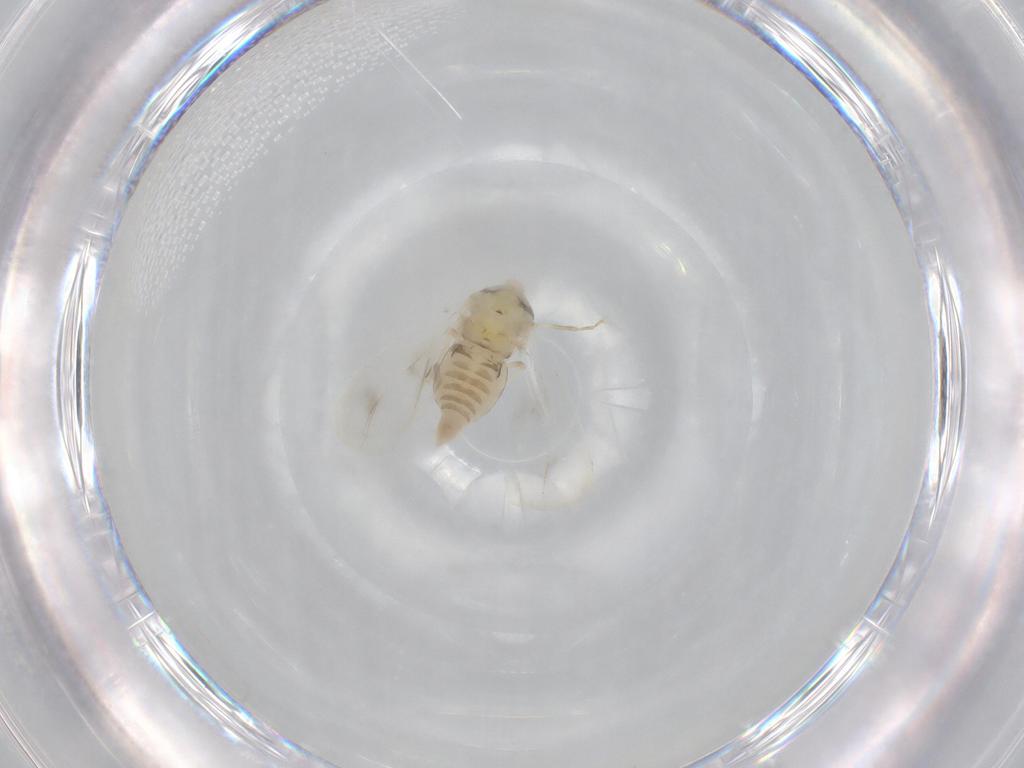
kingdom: Animalia
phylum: Arthropoda
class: Insecta
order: Hemiptera
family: Aleyrodidae
